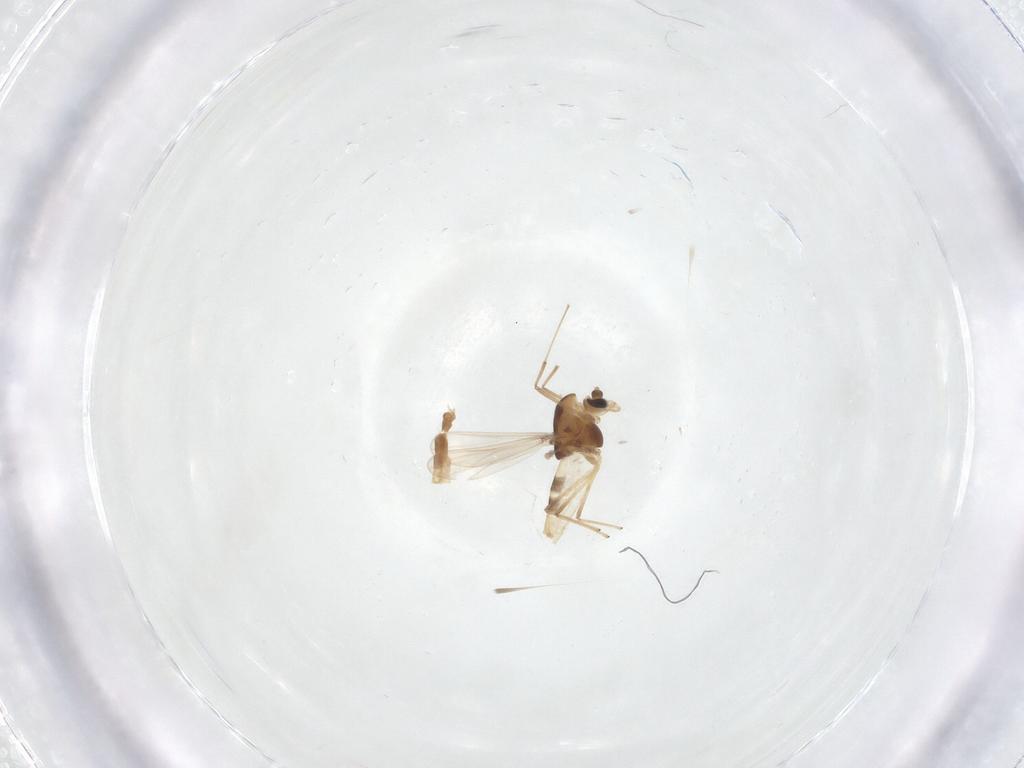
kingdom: Animalia
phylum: Arthropoda
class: Insecta
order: Diptera
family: Chironomidae
